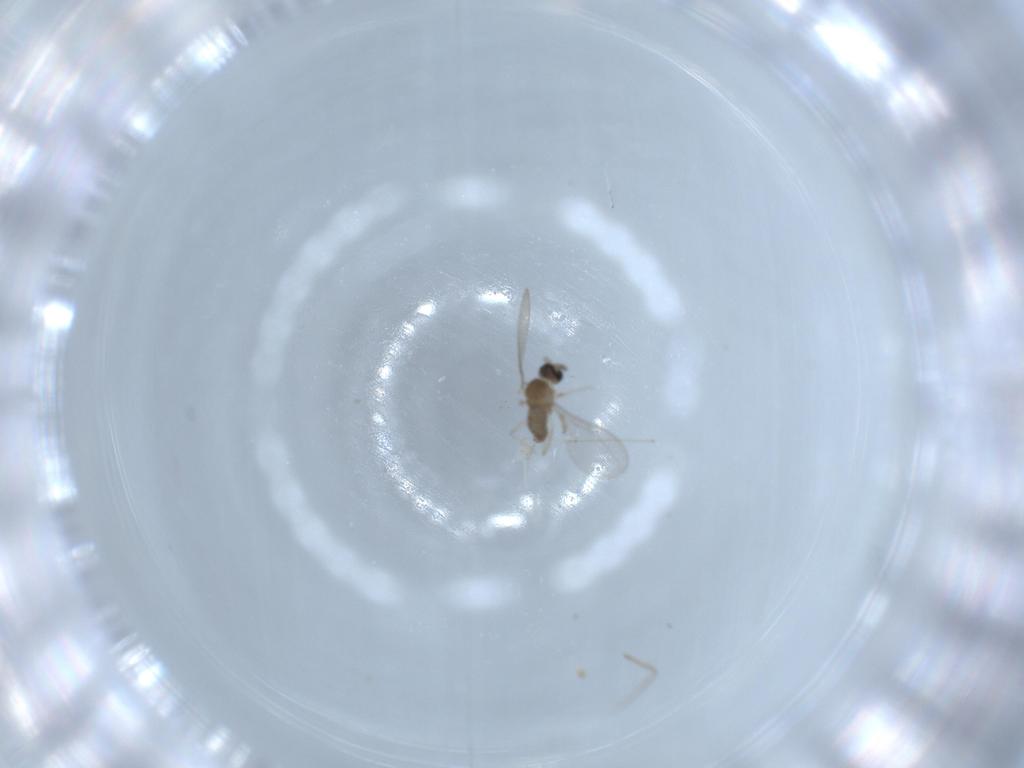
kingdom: Animalia
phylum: Arthropoda
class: Insecta
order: Diptera
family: Cecidomyiidae
